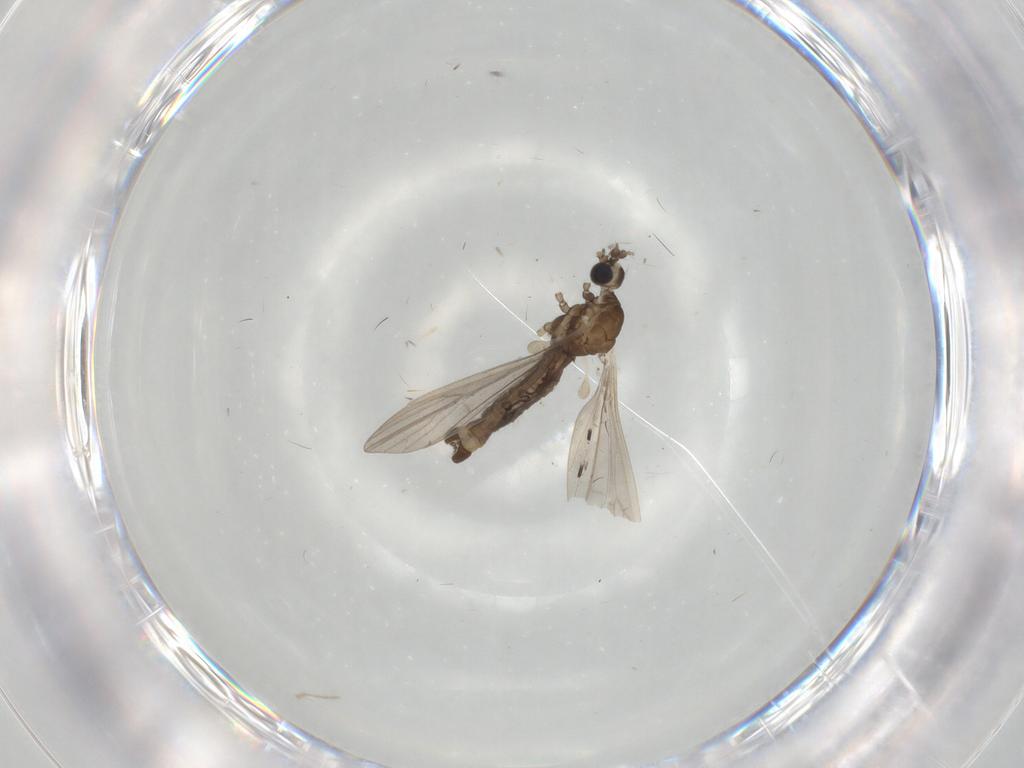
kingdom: Animalia
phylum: Arthropoda
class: Insecta
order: Diptera
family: Limoniidae
